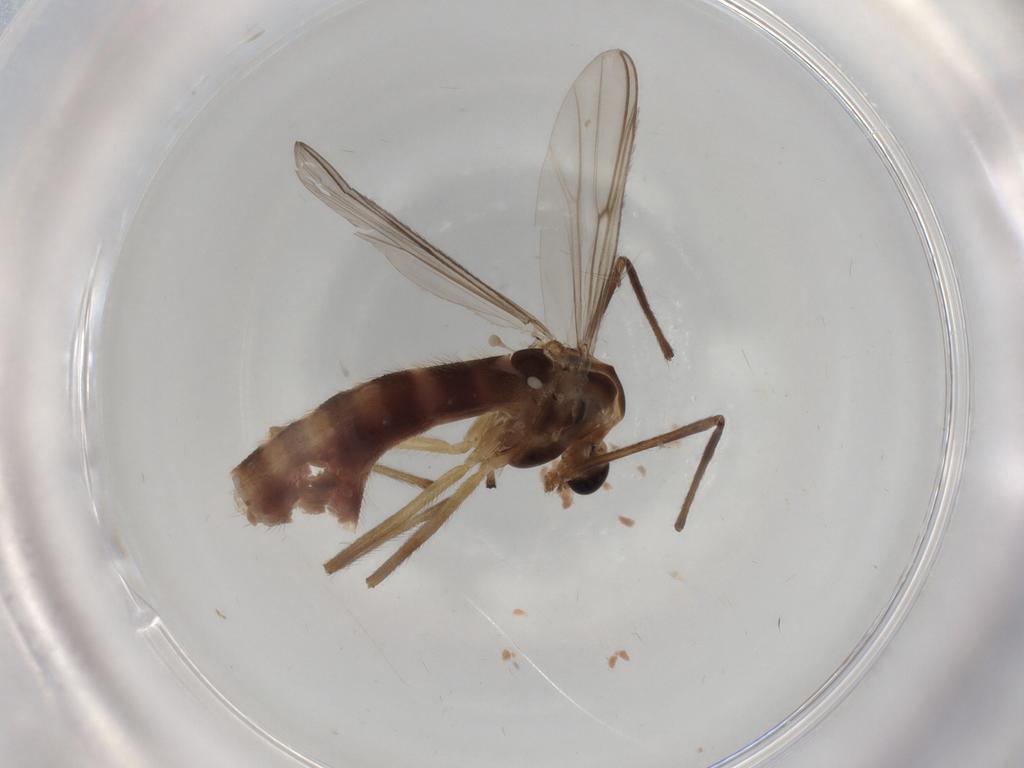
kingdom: Animalia
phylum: Arthropoda
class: Insecta
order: Diptera
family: Chironomidae
